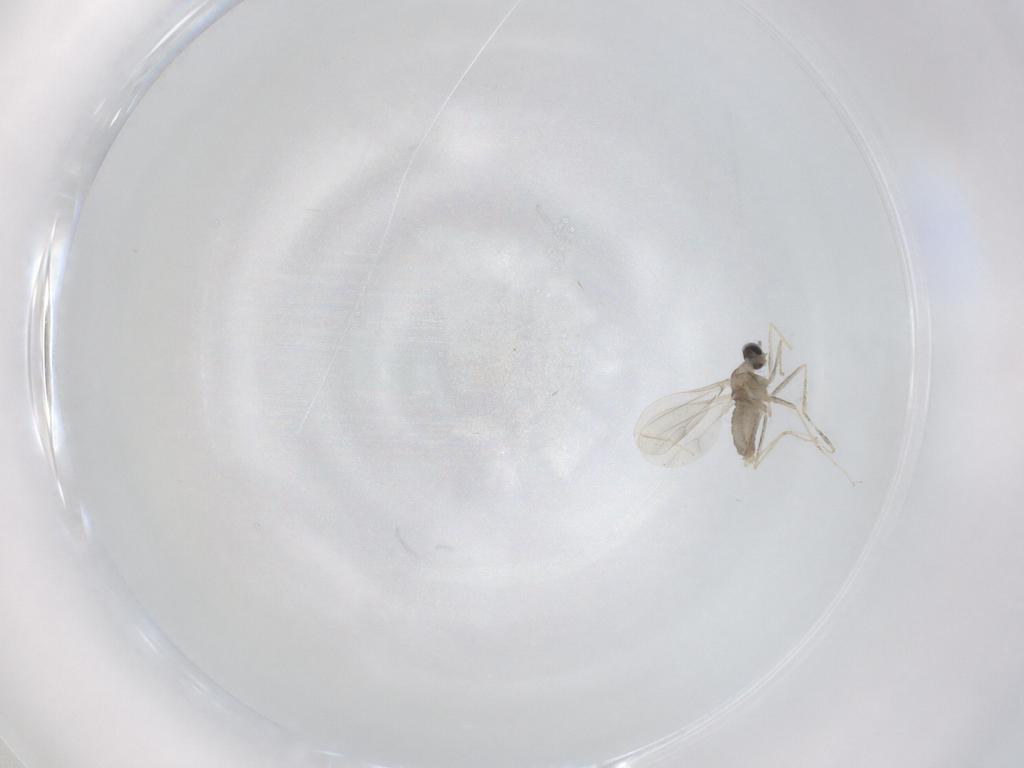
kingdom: Animalia
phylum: Arthropoda
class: Insecta
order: Diptera
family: Cecidomyiidae
